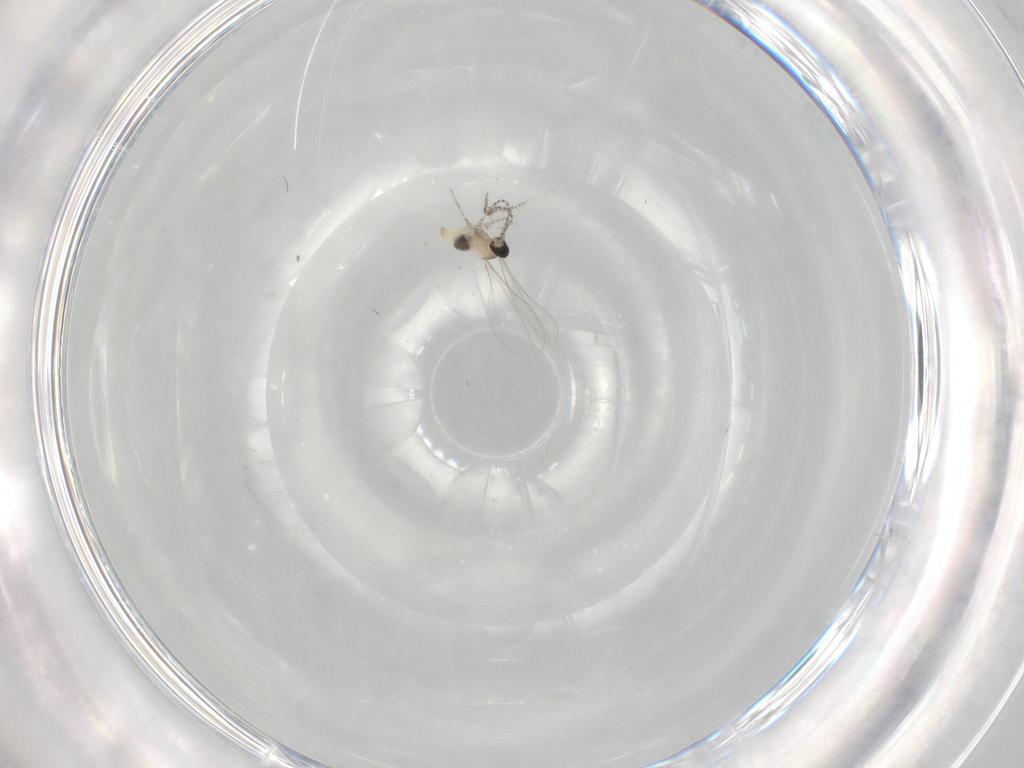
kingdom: Animalia
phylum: Arthropoda
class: Insecta
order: Diptera
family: Cecidomyiidae
